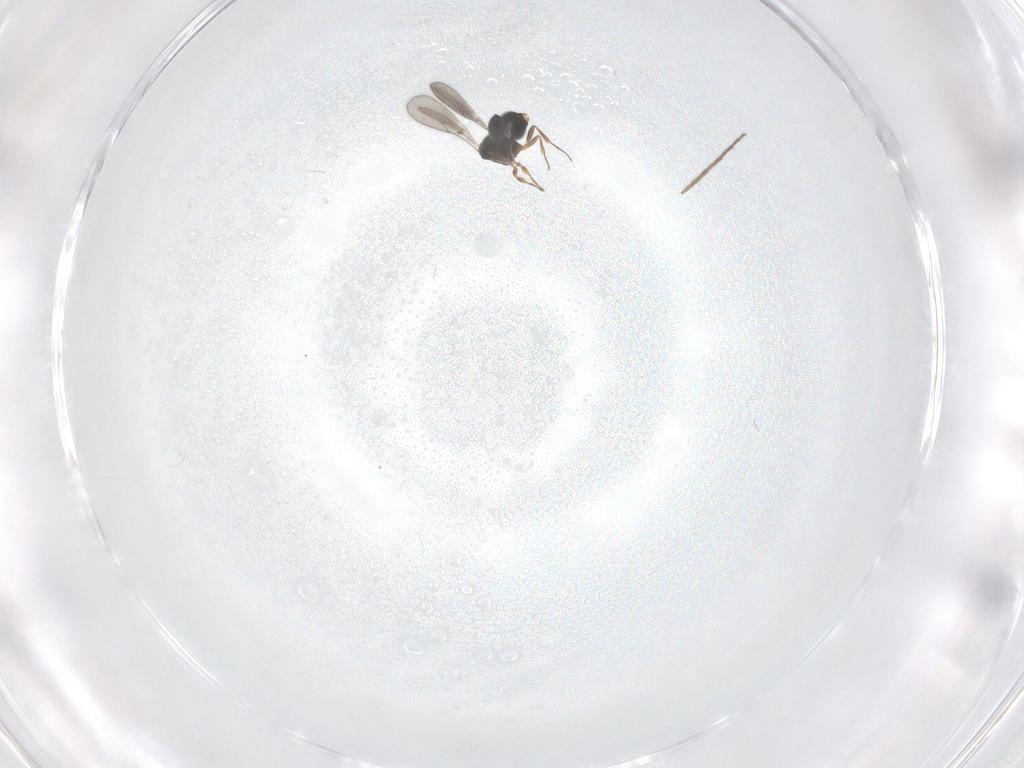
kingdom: Animalia
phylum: Arthropoda
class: Insecta
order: Hymenoptera
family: Scelionidae
